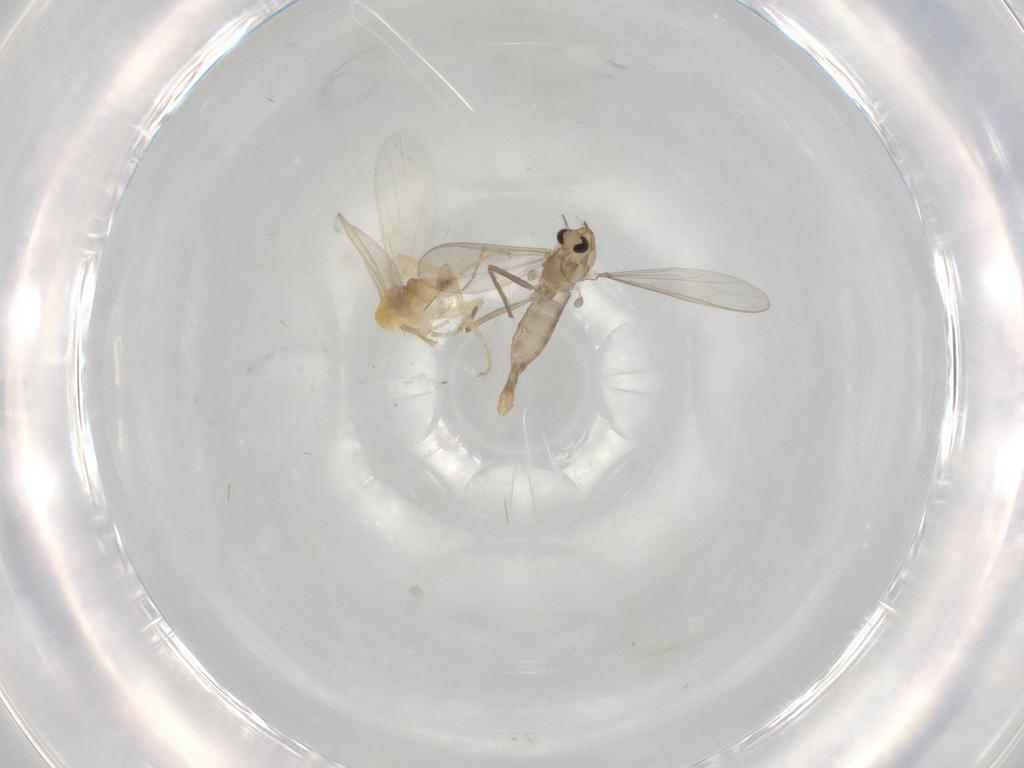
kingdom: Animalia
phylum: Arthropoda
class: Insecta
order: Diptera
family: Chironomidae
